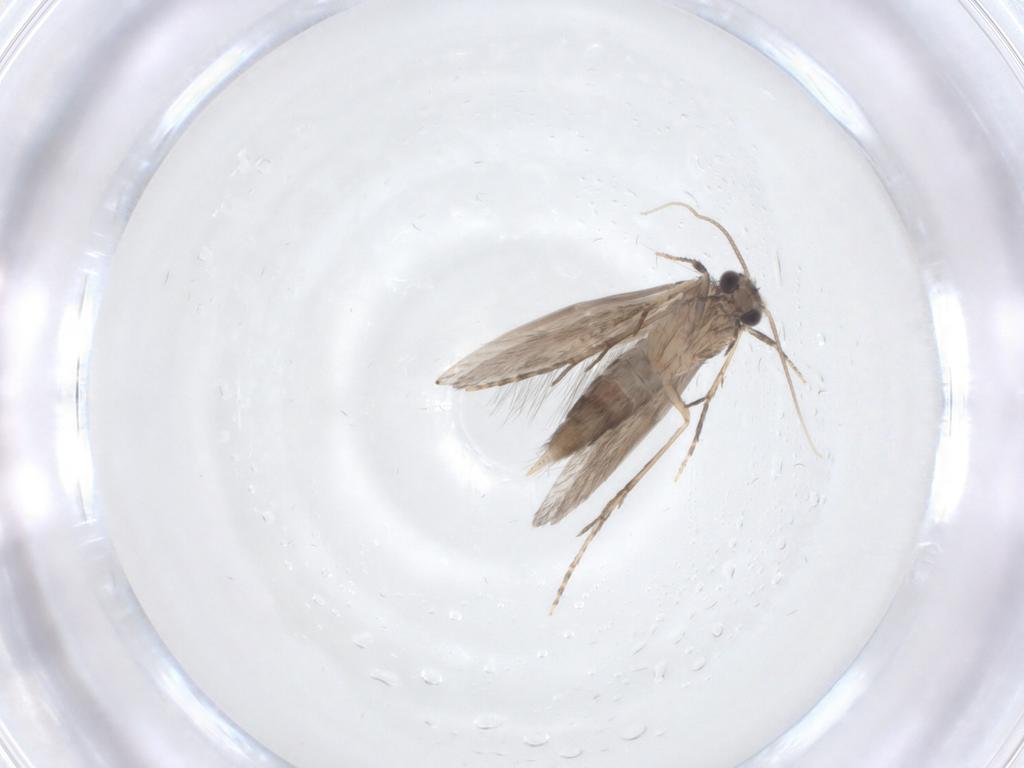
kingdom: Animalia
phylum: Arthropoda
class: Insecta
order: Trichoptera
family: Hydroptilidae
